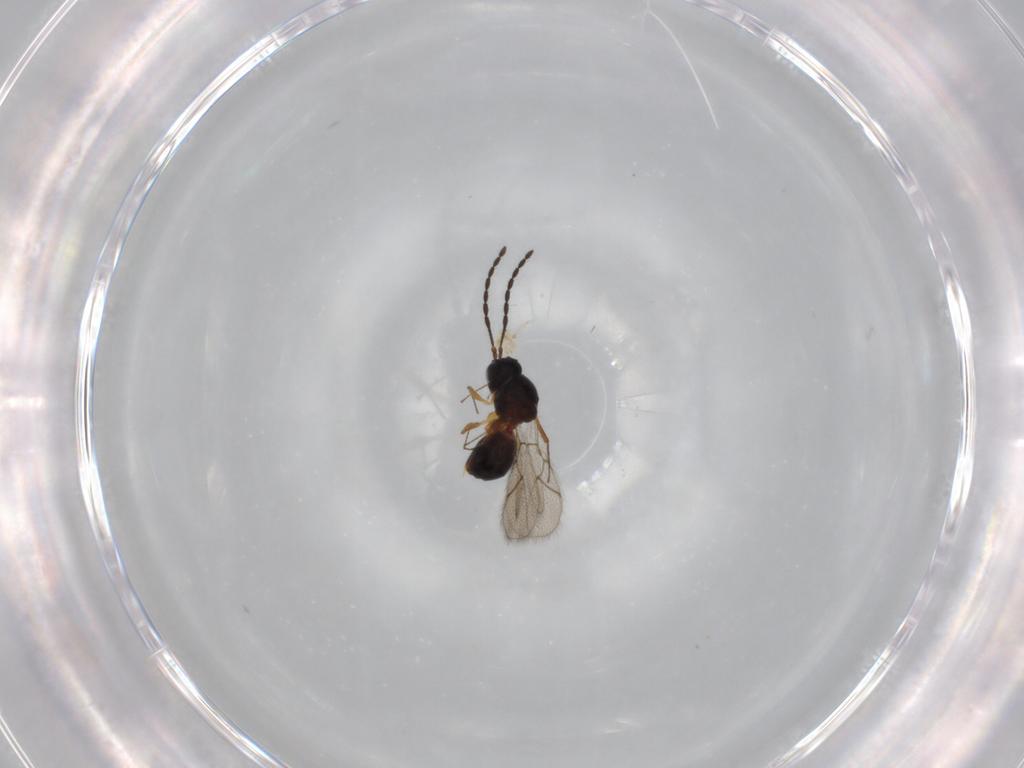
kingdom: Animalia
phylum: Arthropoda
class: Insecta
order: Hymenoptera
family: Figitidae
